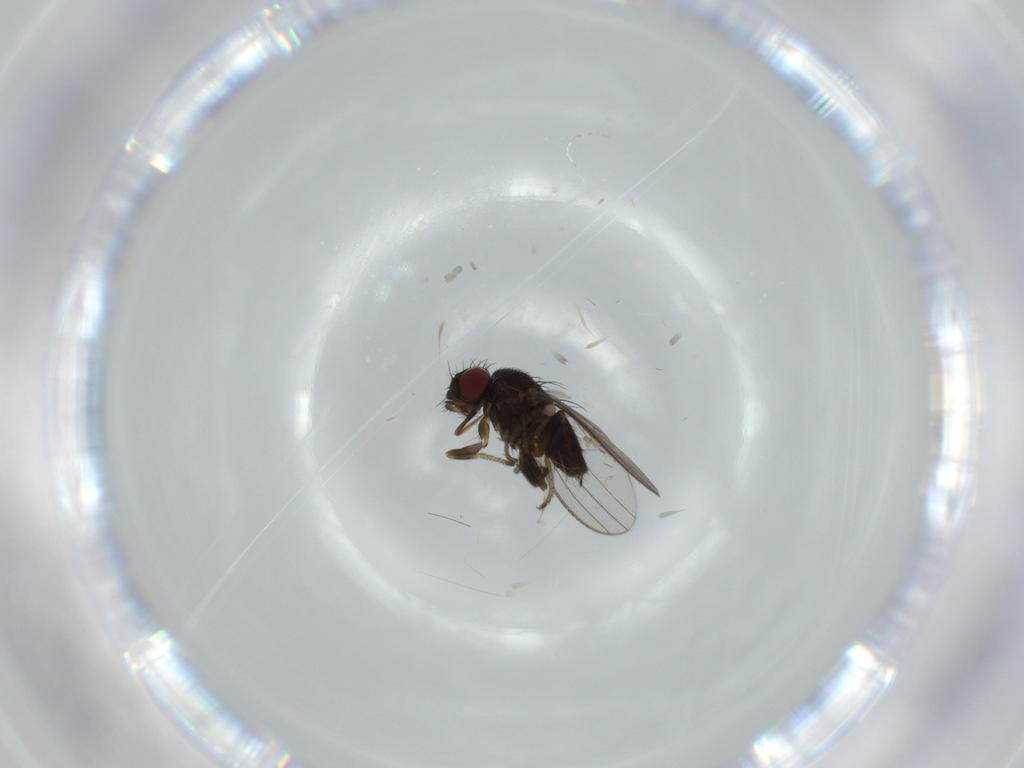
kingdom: Animalia
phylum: Arthropoda
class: Insecta
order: Diptera
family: Milichiidae
